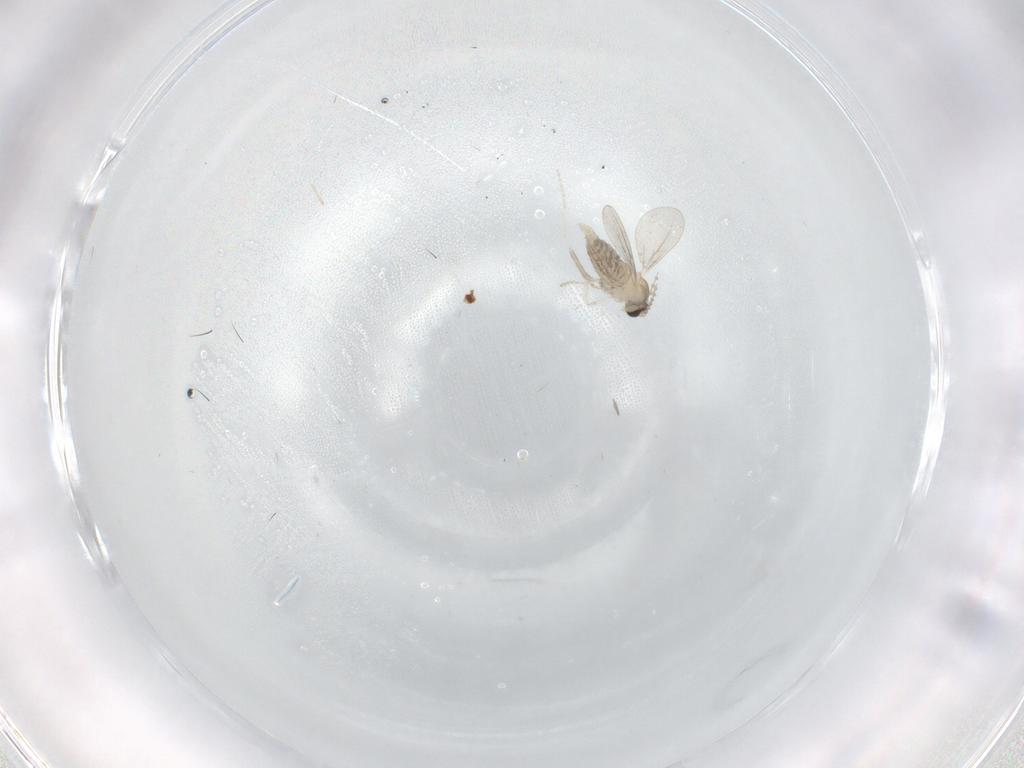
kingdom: Animalia
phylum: Arthropoda
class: Insecta
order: Diptera
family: Cecidomyiidae
